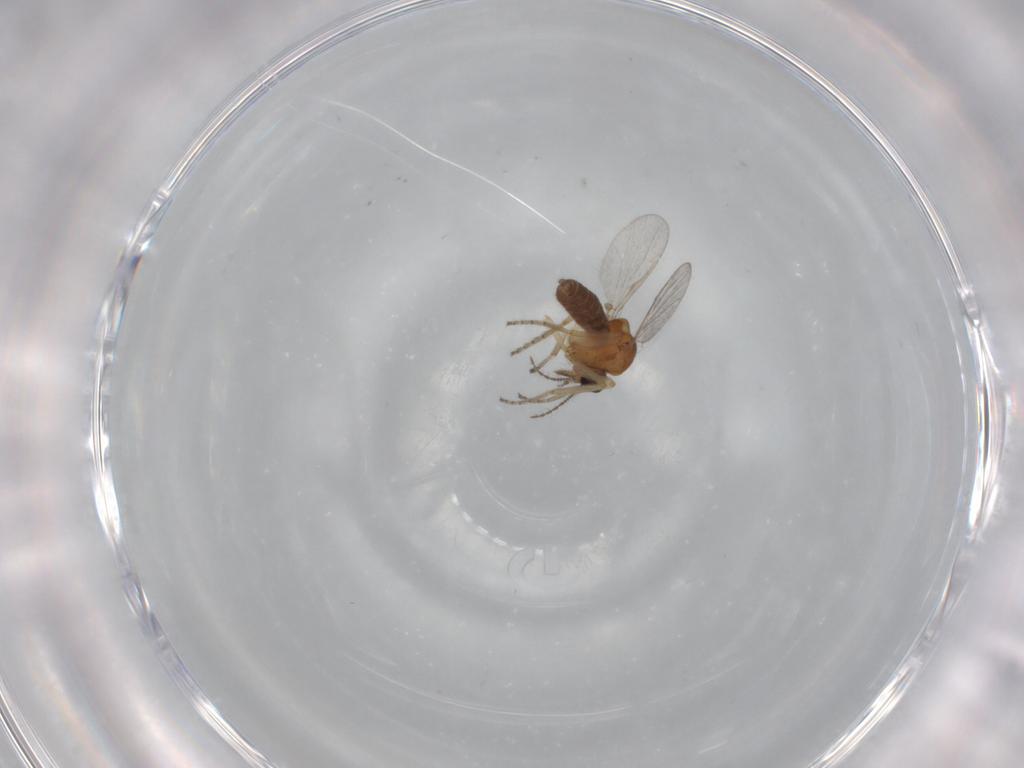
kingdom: Animalia
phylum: Arthropoda
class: Insecta
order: Diptera
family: Ceratopogonidae
